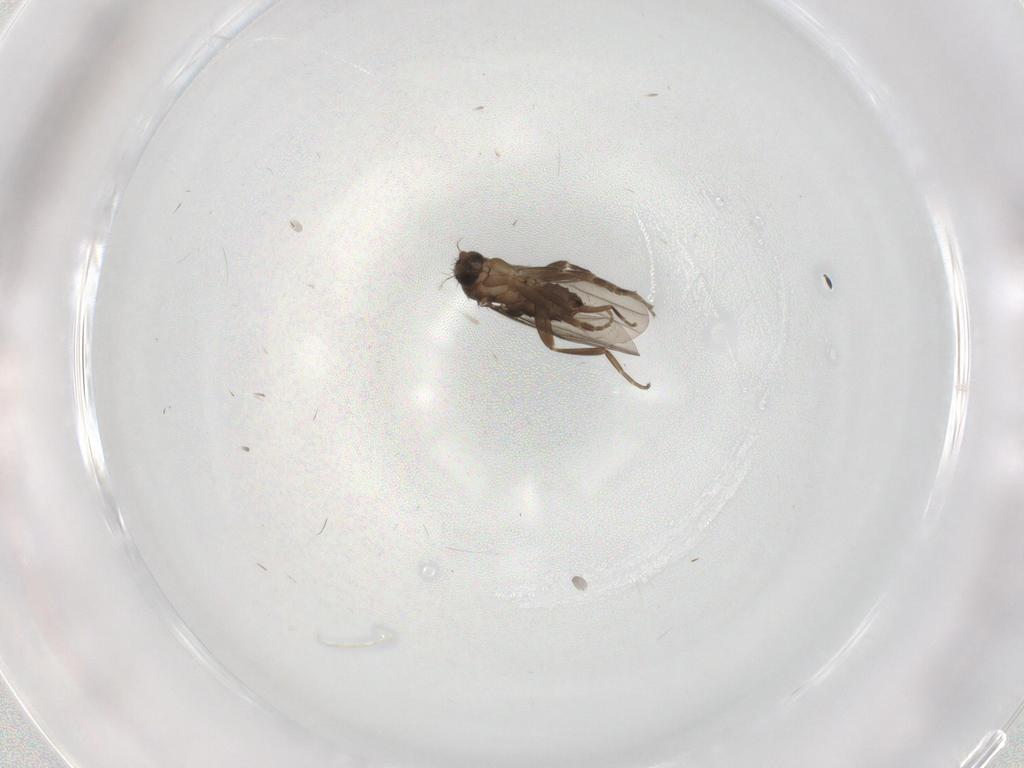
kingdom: Animalia
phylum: Arthropoda
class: Insecta
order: Diptera
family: Phoridae
